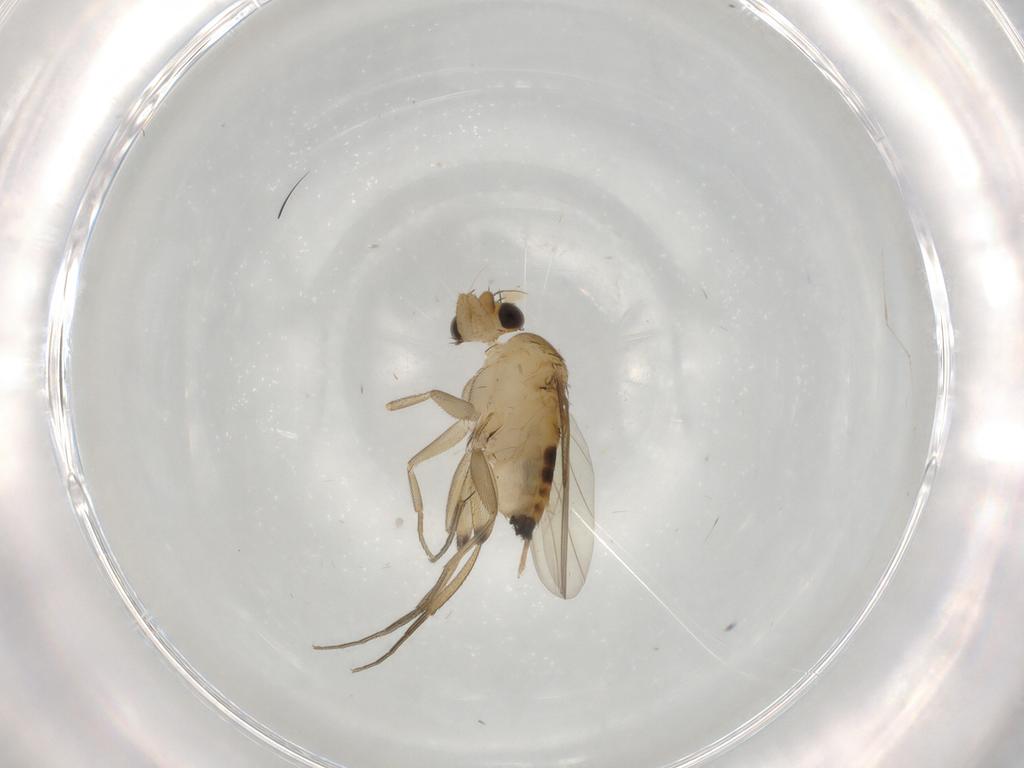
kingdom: Animalia
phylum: Arthropoda
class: Insecta
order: Diptera
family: Phoridae
